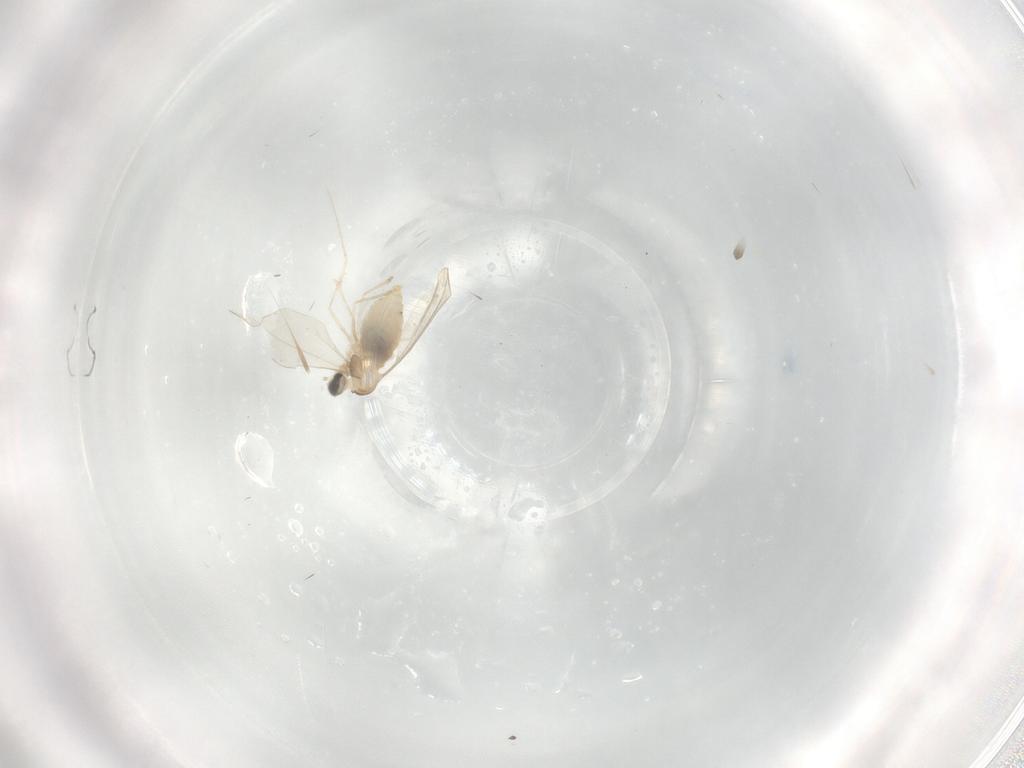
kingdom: Animalia
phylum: Arthropoda
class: Insecta
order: Diptera
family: Cecidomyiidae
